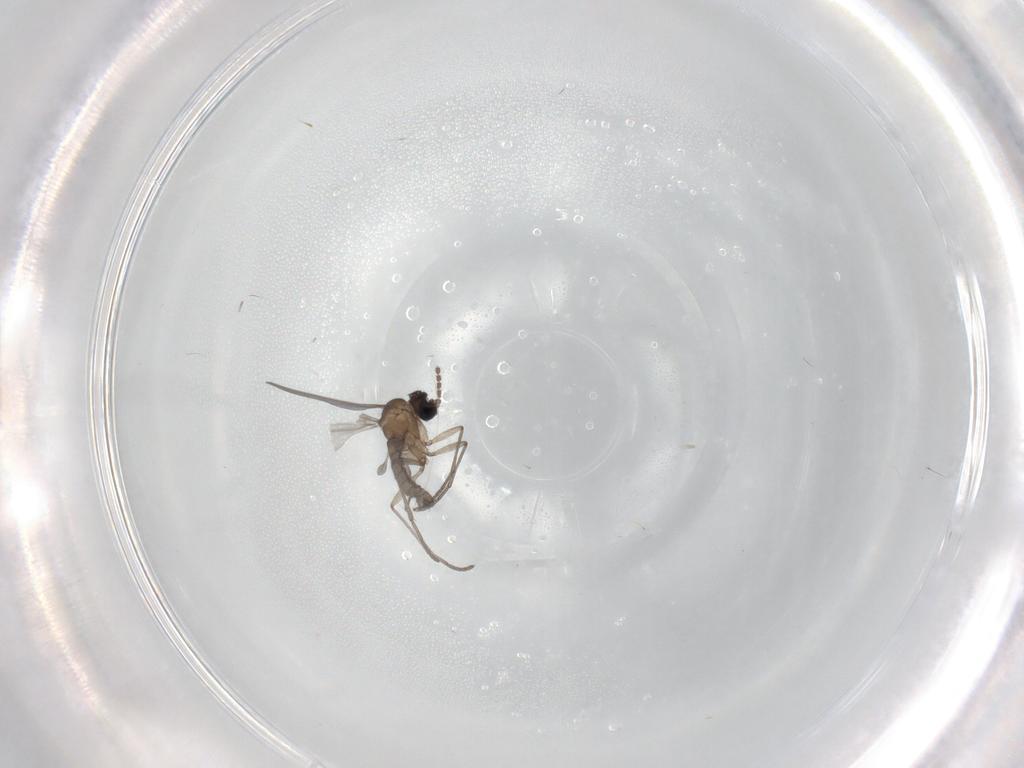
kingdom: Animalia
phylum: Arthropoda
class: Insecta
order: Diptera
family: Sciaridae
